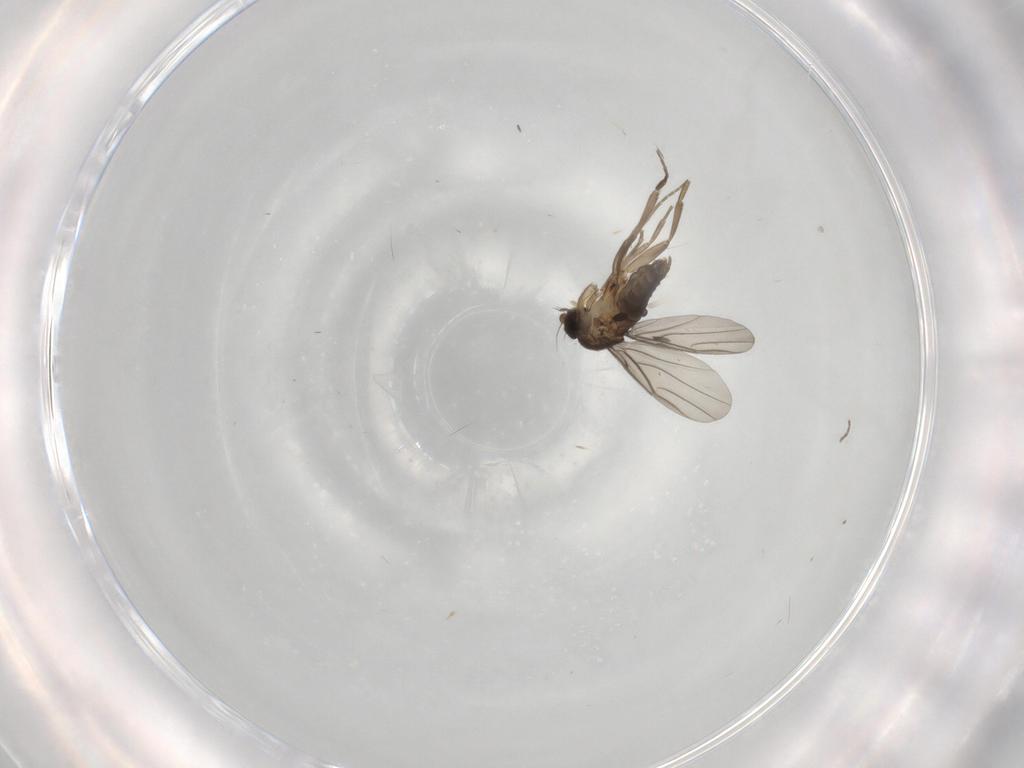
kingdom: Animalia
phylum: Arthropoda
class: Insecta
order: Diptera
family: Phoridae
